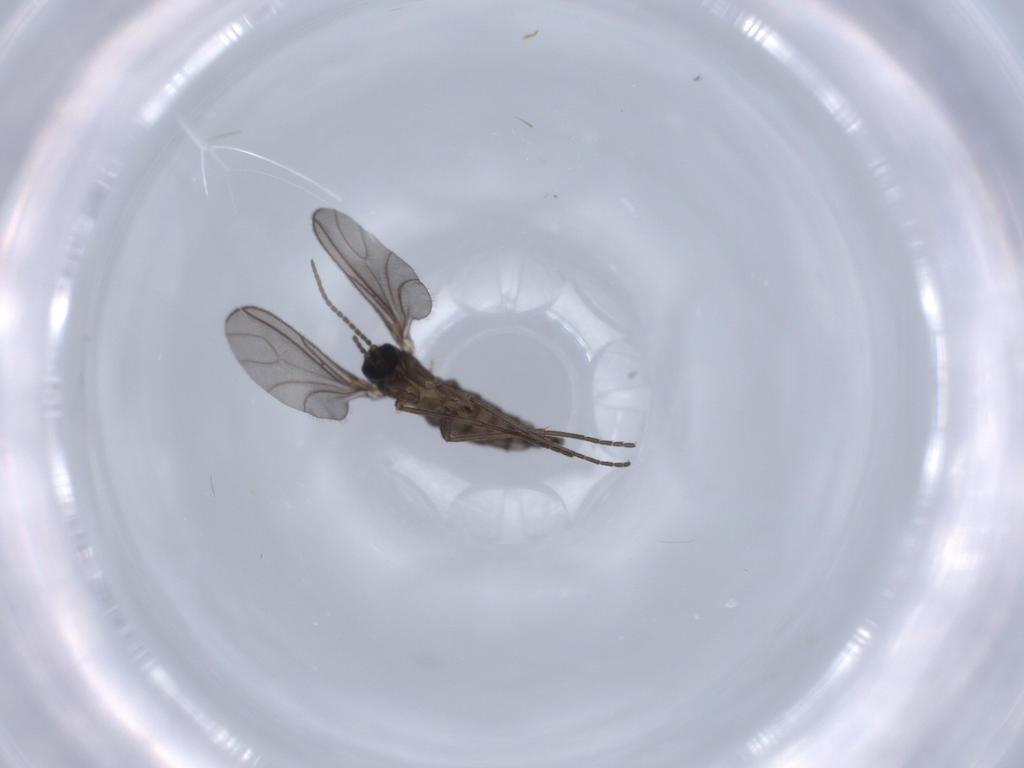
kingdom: Animalia
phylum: Arthropoda
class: Insecta
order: Diptera
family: Sciaridae
